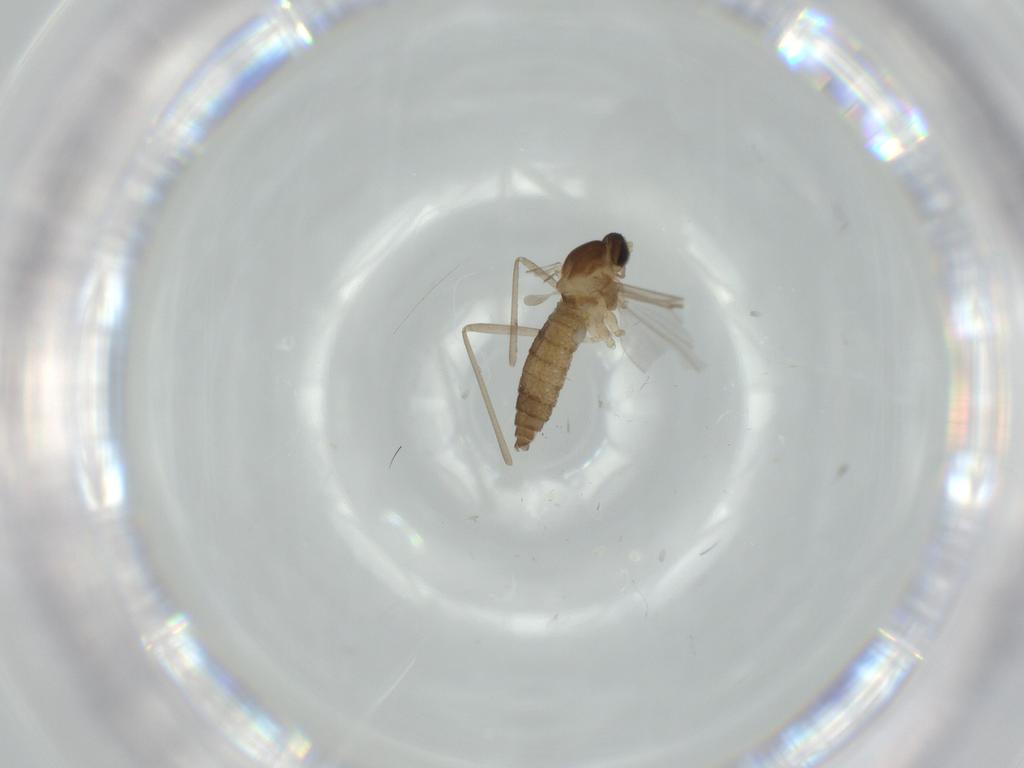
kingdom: Animalia
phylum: Arthropoda
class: Insecta
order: Diptera
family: Cecidomyiidae
